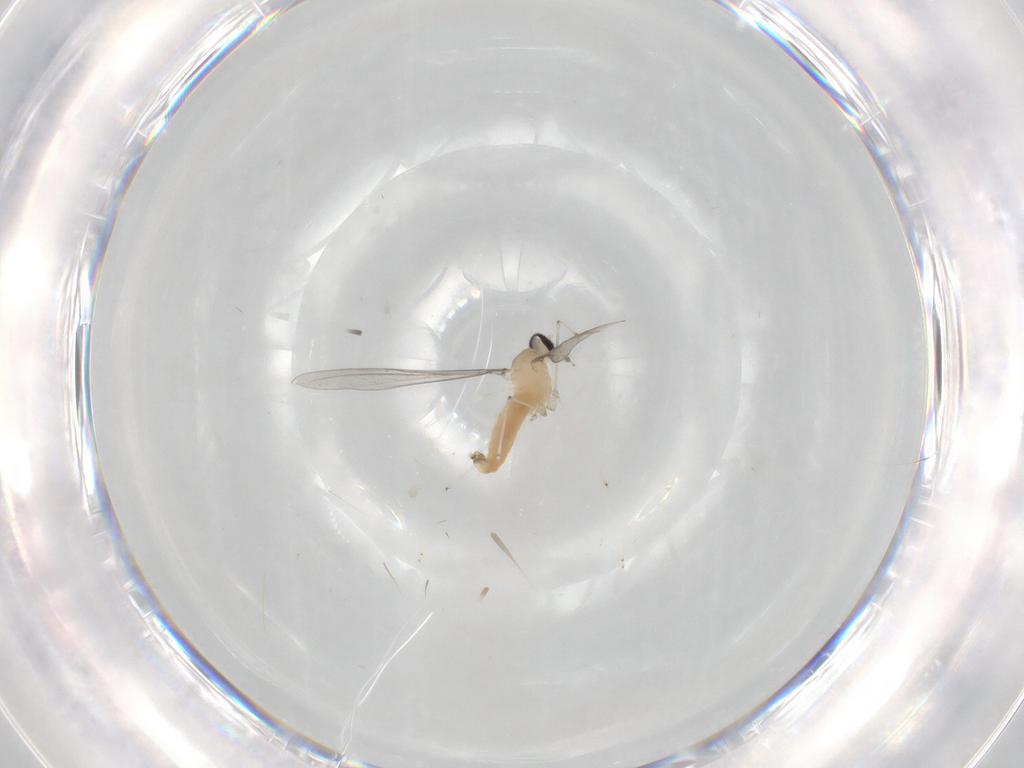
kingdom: Animalia
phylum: Arthropoda
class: Insecta
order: Diptera
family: Cecidomyiidae
